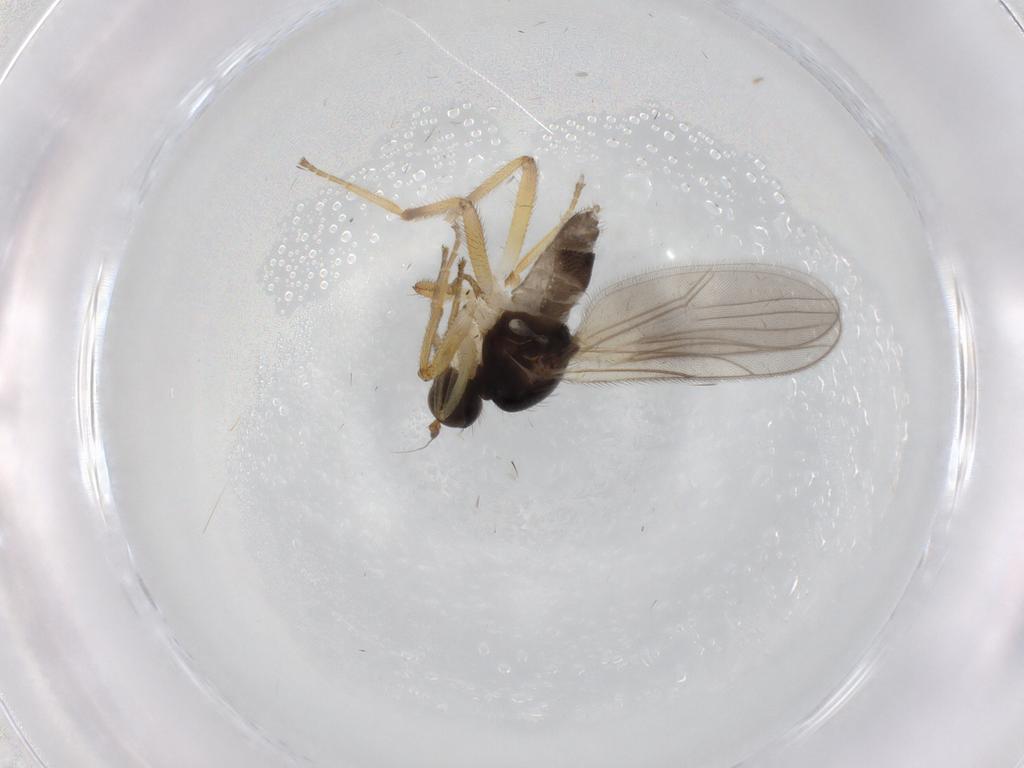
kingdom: Animalia
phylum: Arthropoda
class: Insecta
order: Diptera
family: Hybotidae
